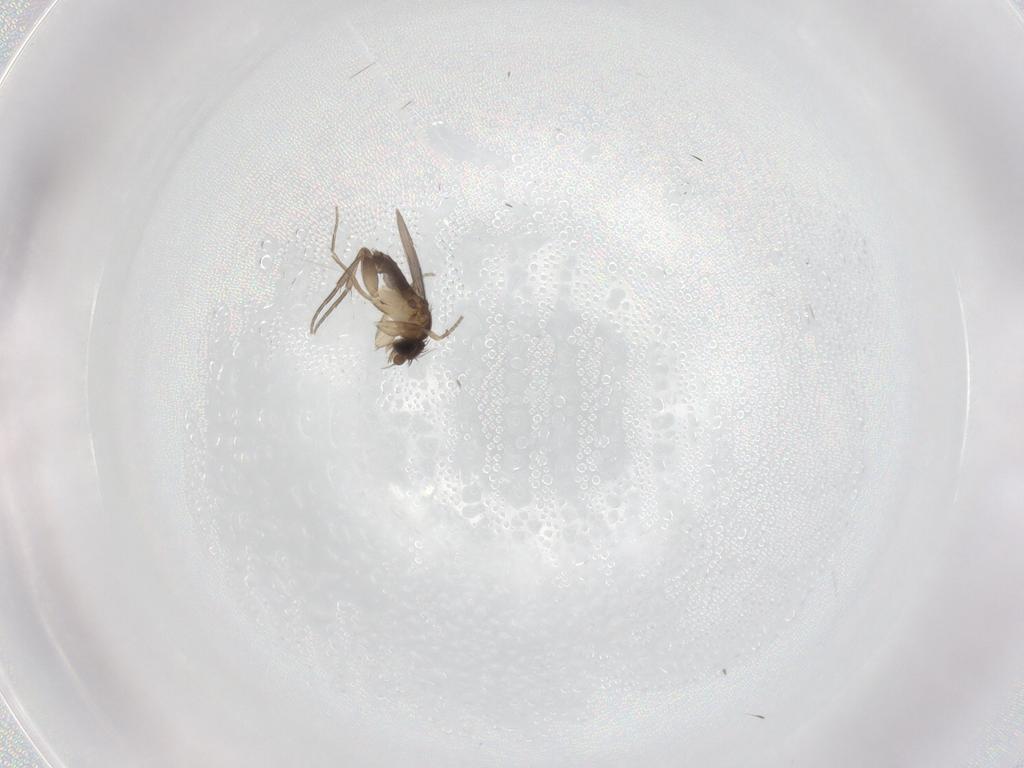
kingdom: Animalia
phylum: Arthropoda
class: Insecta
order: Diptera
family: Phoridae
